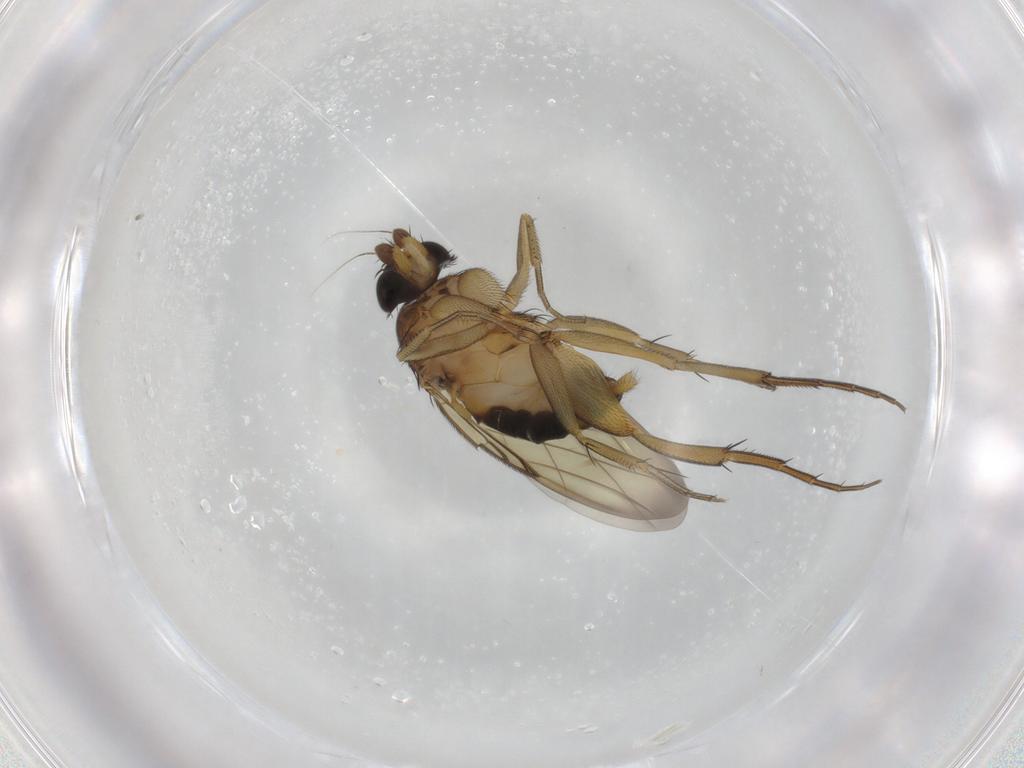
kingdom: Animalia
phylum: Arthropoda
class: Insecta
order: Diptera
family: Phoridae
